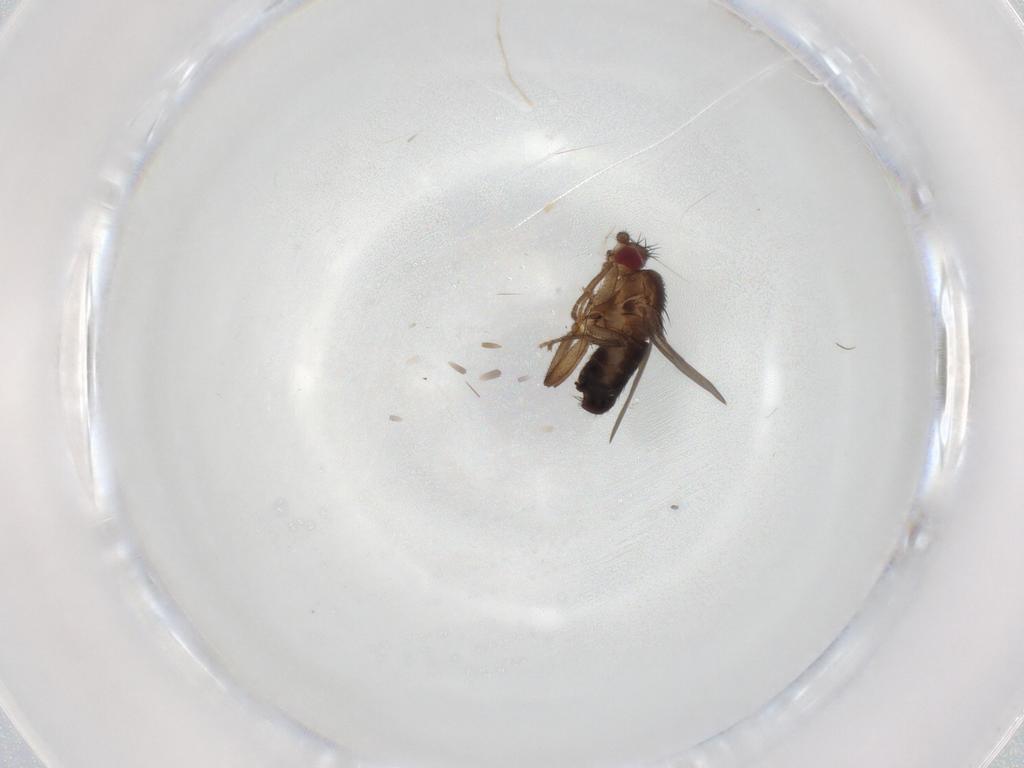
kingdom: Animalia
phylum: Arthropoda
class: Insecta
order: Diptera
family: Sphaeroceridae
